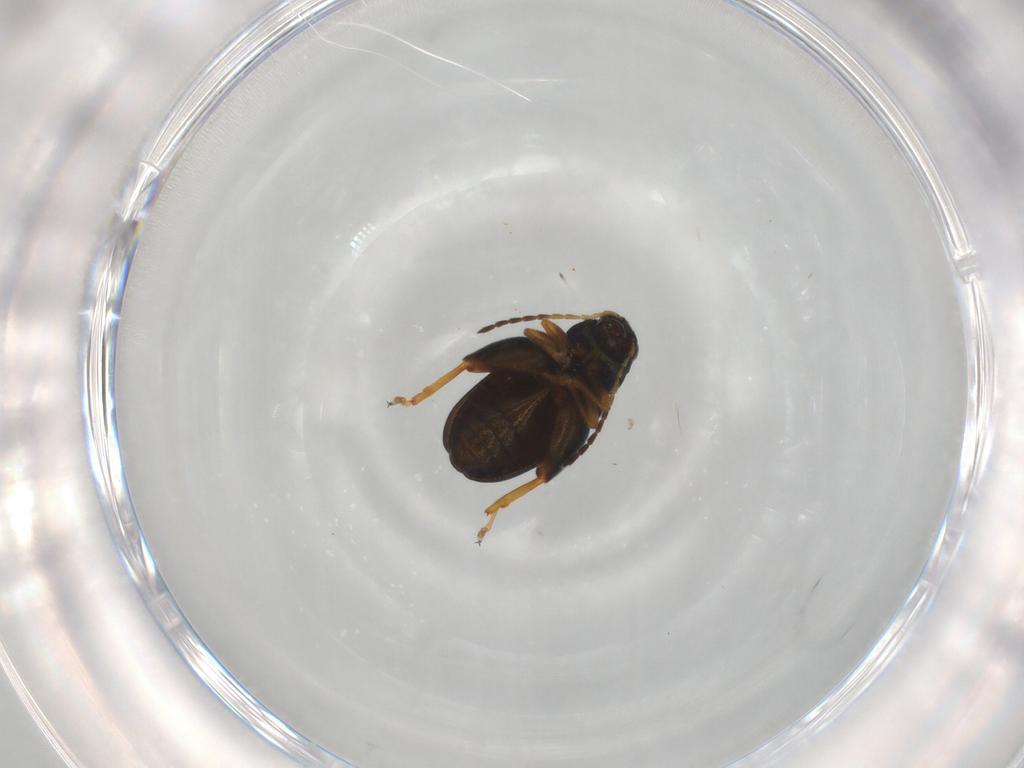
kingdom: Animalia
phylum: Arthropoda
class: Insecta
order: Coleoptera
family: Chrysomelidae
